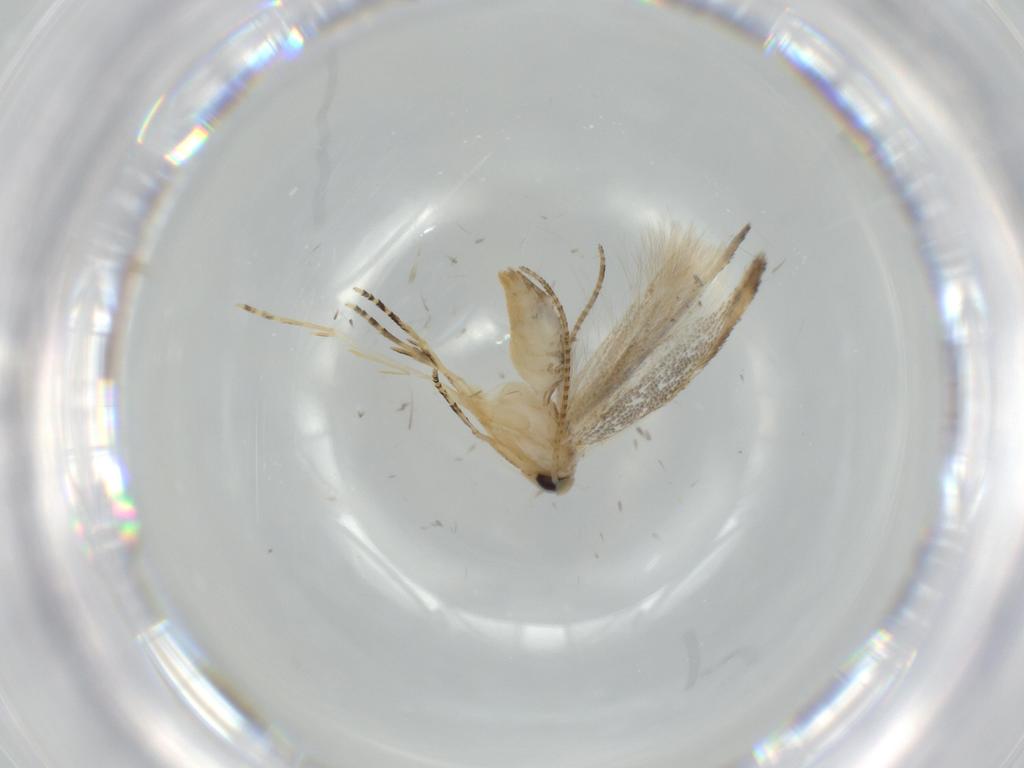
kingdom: Animalia
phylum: Arthropoda
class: Insecta
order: Lepidoptera
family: Bucculatricidae
